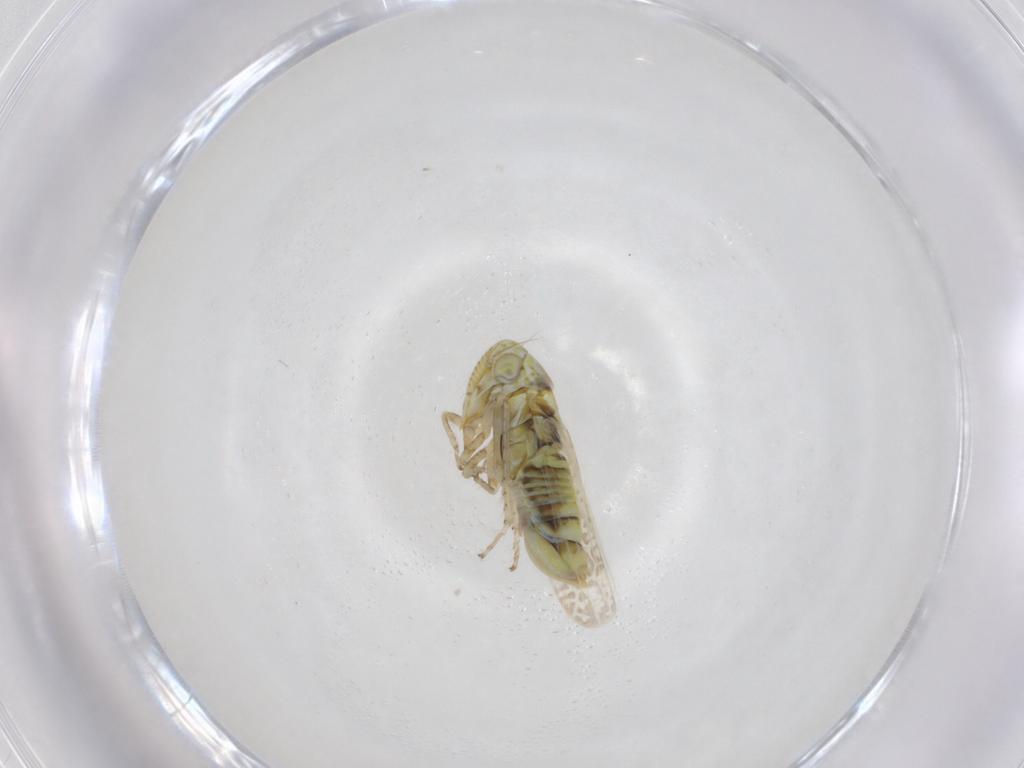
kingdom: Animalia
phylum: Arthropoda
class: Insecta
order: Hemiptera
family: Cicadellidae
